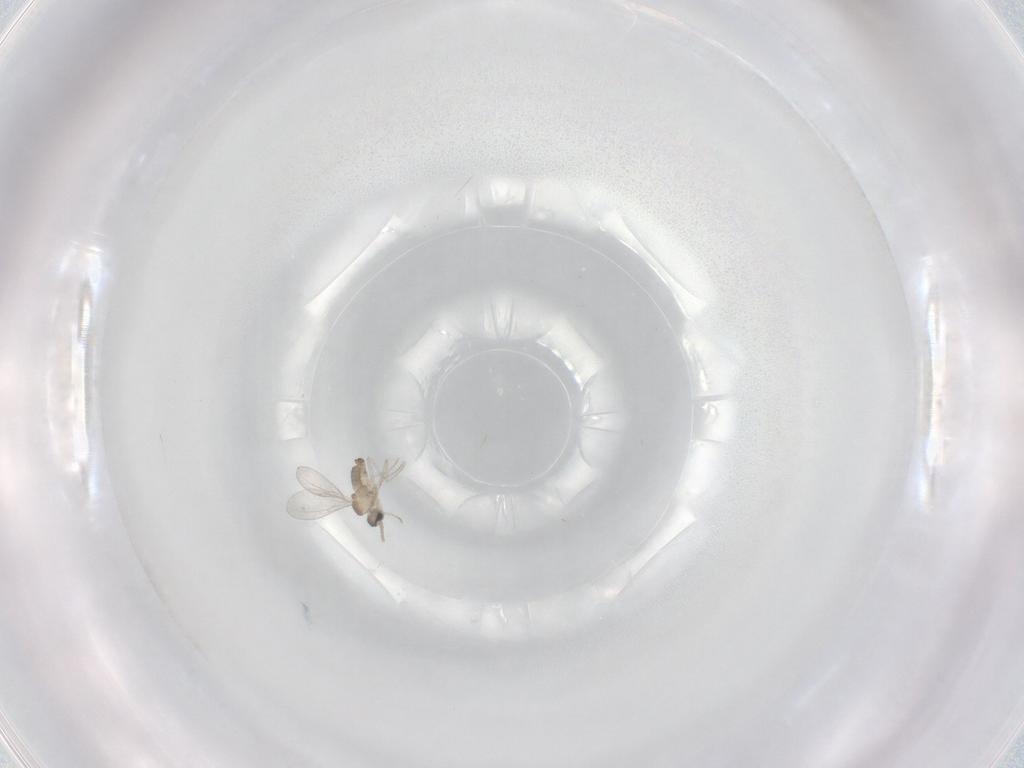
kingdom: Animalia
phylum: Arthropoda
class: Insecta
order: Diptera
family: Cecidomyiidae
